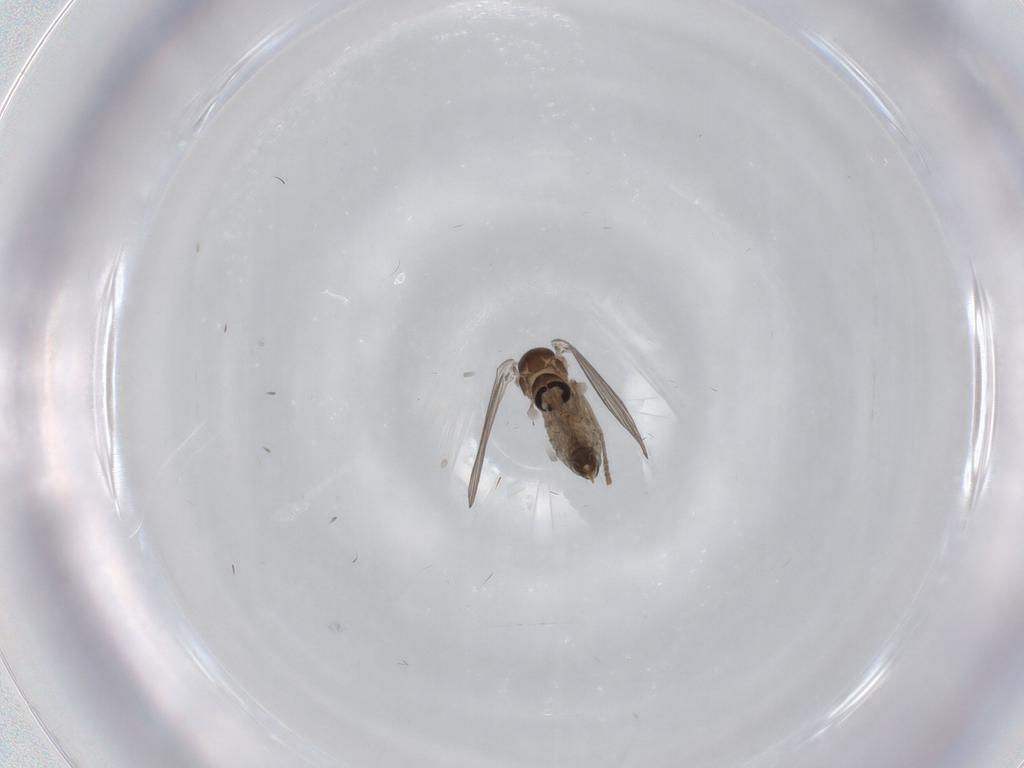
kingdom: Animalia
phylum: Arthropoda
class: Insecta
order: Diptera
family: Psychodidae
